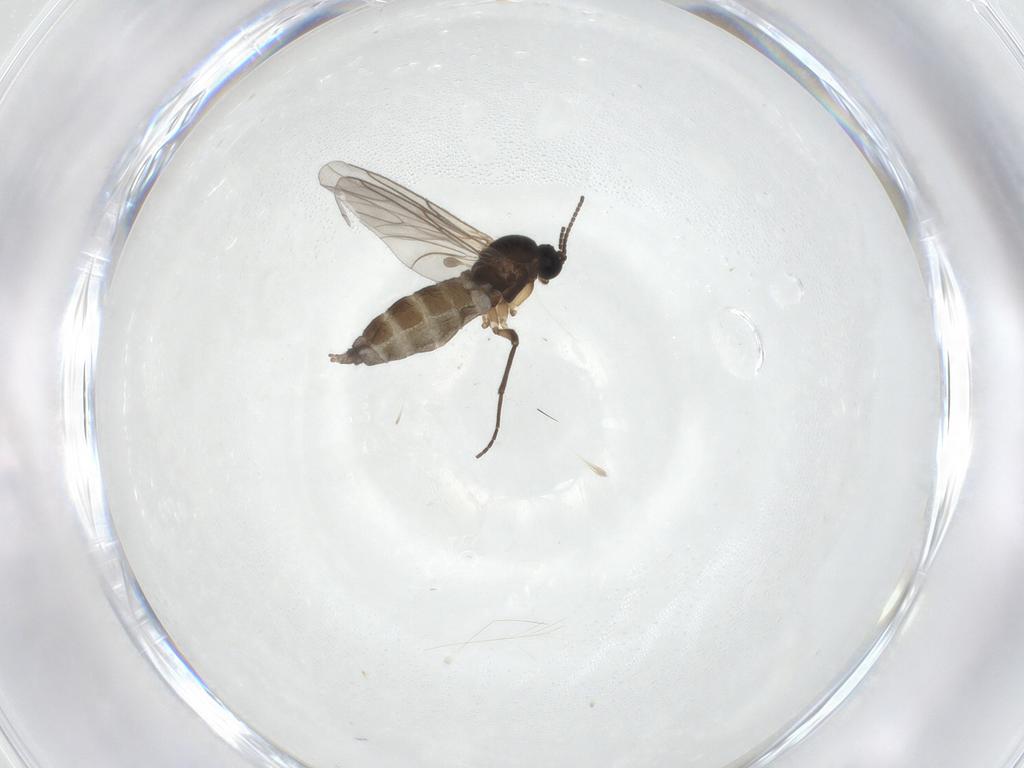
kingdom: Animalia
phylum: Arthropoda
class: Insecta
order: Diptera
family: Sciaridae
